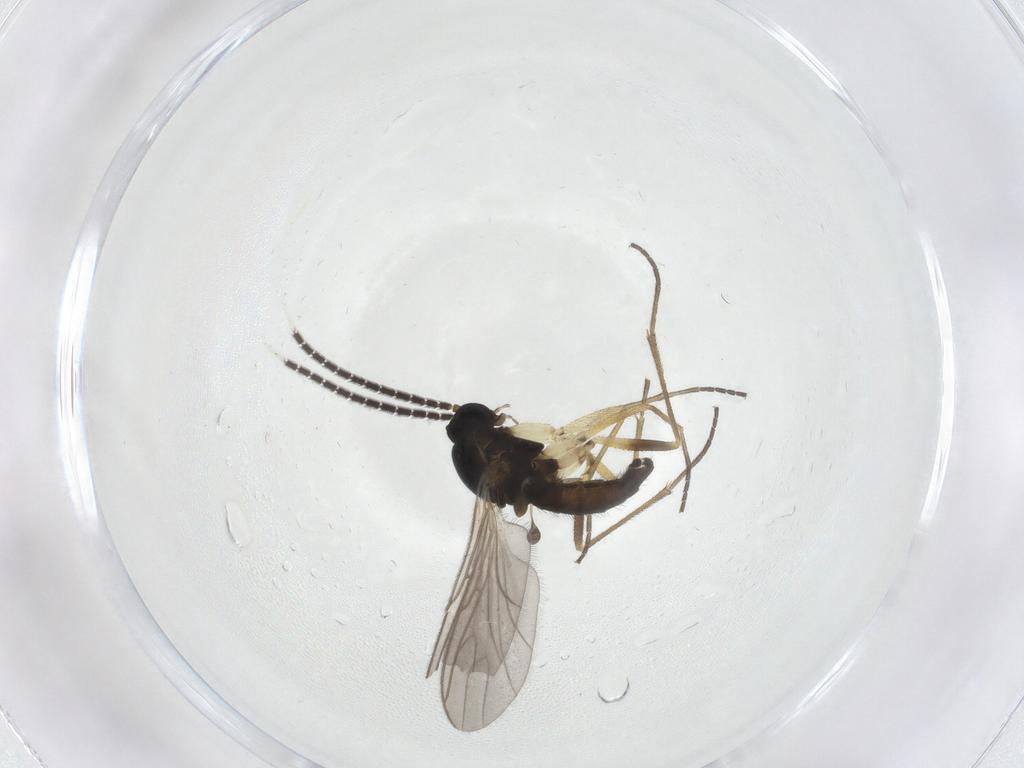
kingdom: Animalia
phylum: Arthropoda
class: Insecta
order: Diptera
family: Sciaridae
